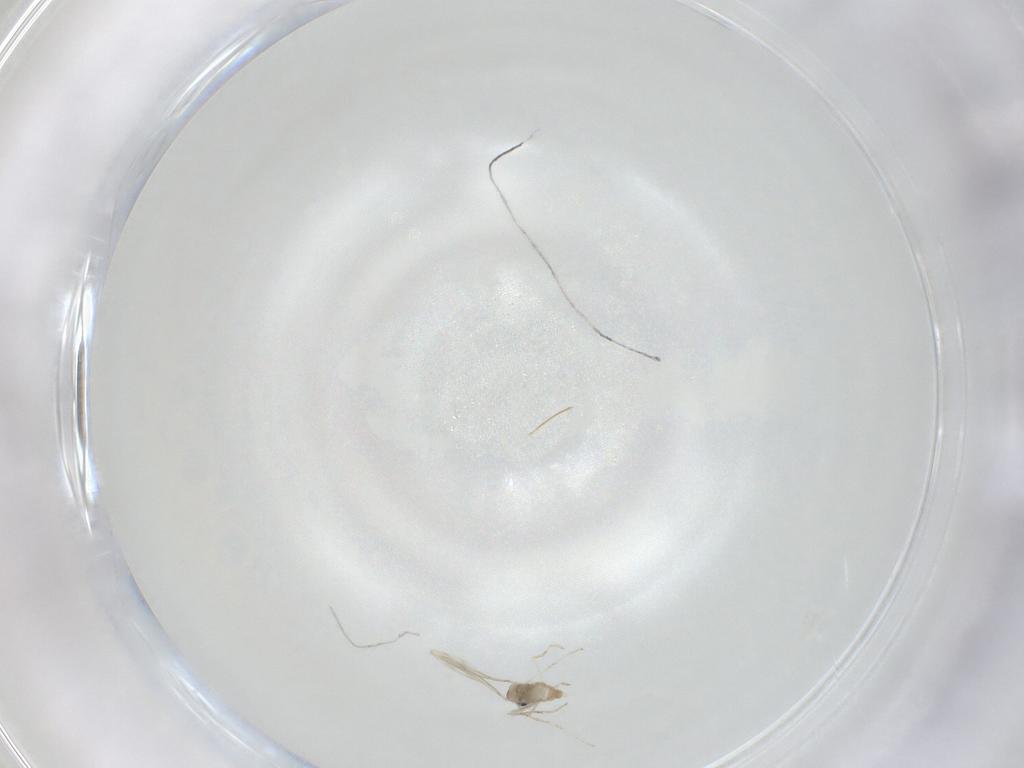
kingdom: Animalia
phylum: Arthropoda
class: Insecta
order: Diptera
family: Cecidomyiidae
